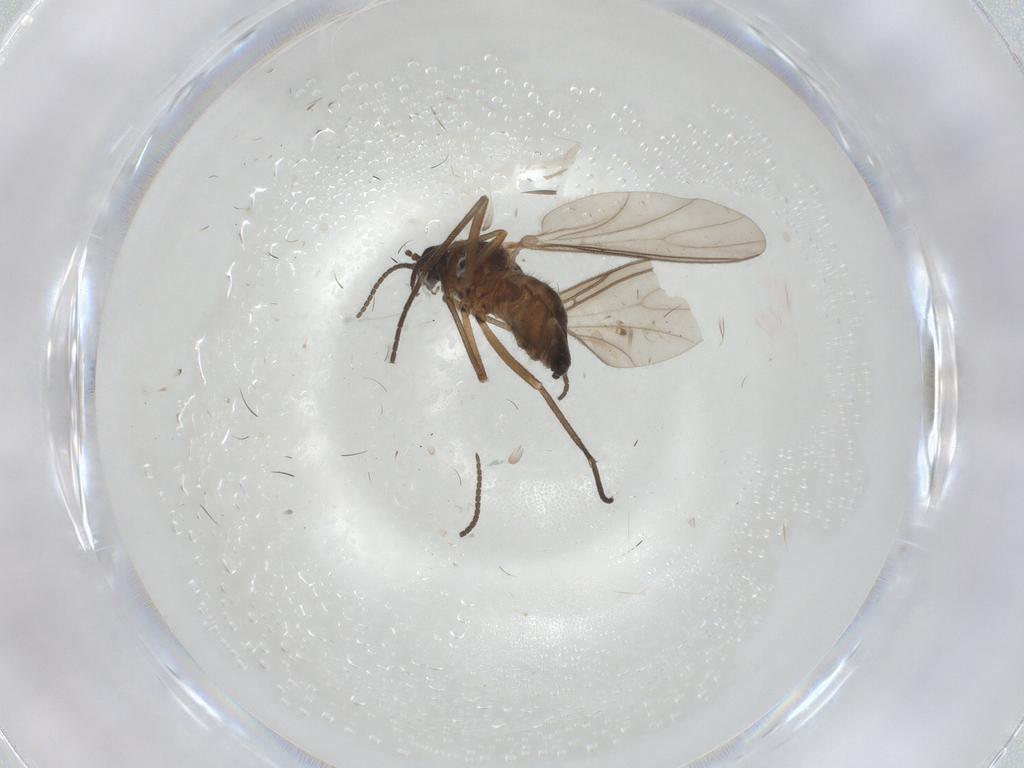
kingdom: Animalia
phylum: Arthropoda
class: Insecta
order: Diptera
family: Sciaridae
